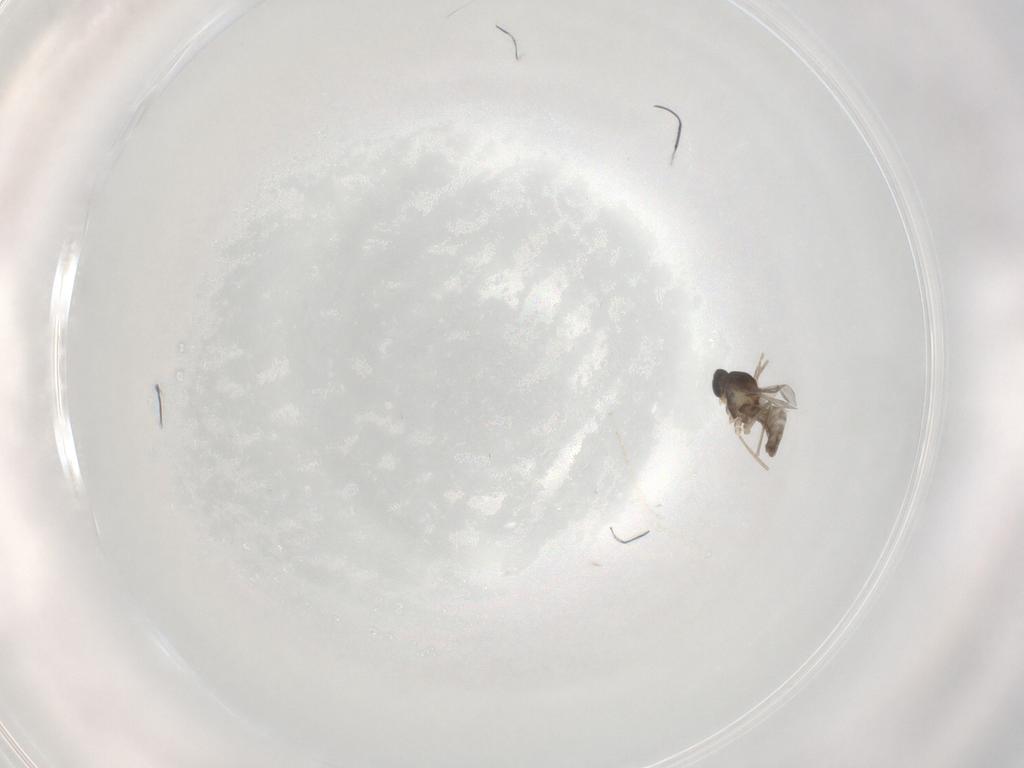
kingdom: Animalia
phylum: Arthropoda
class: Insecta
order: Diptera
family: Cecidomyiidae
